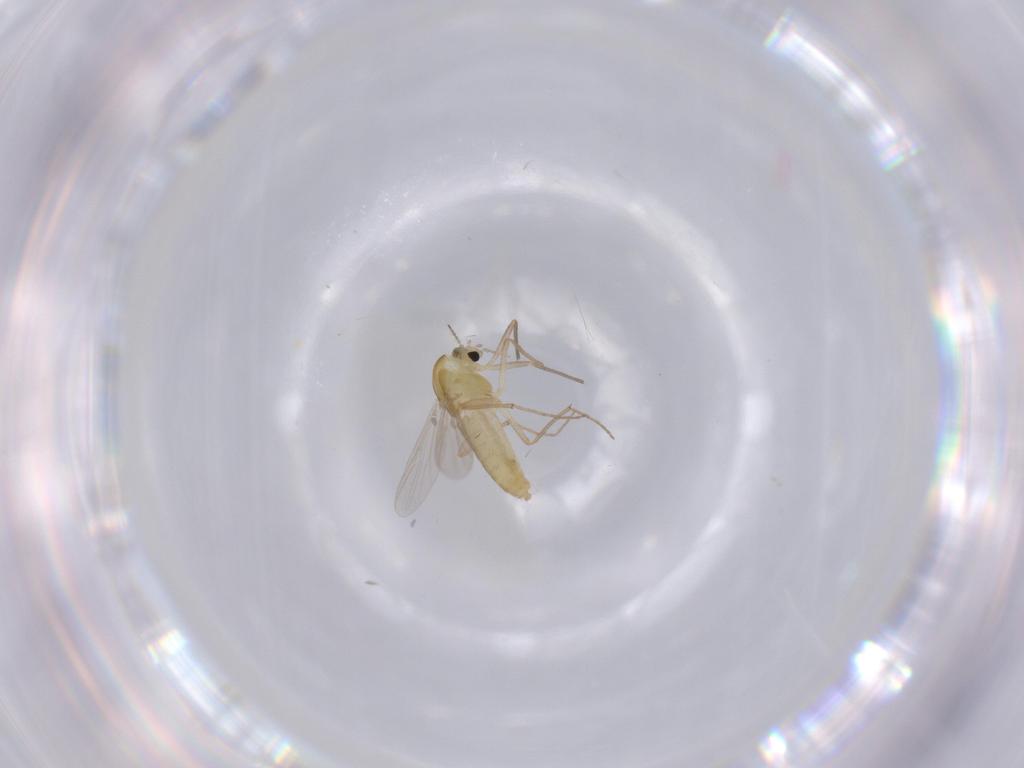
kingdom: Animalia
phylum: Arthropoda
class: Insecta
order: Diptera
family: Chironomidae
